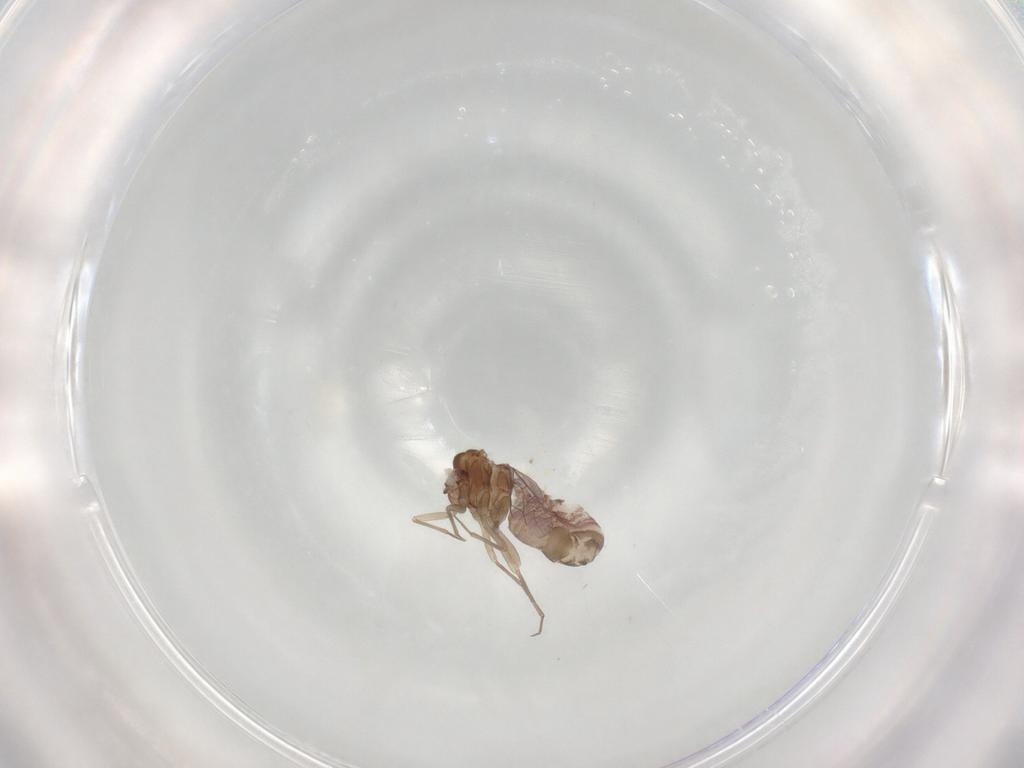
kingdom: Animalia
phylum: Arthropoda
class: Insecta
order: Psocodea
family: Lachesillidae
